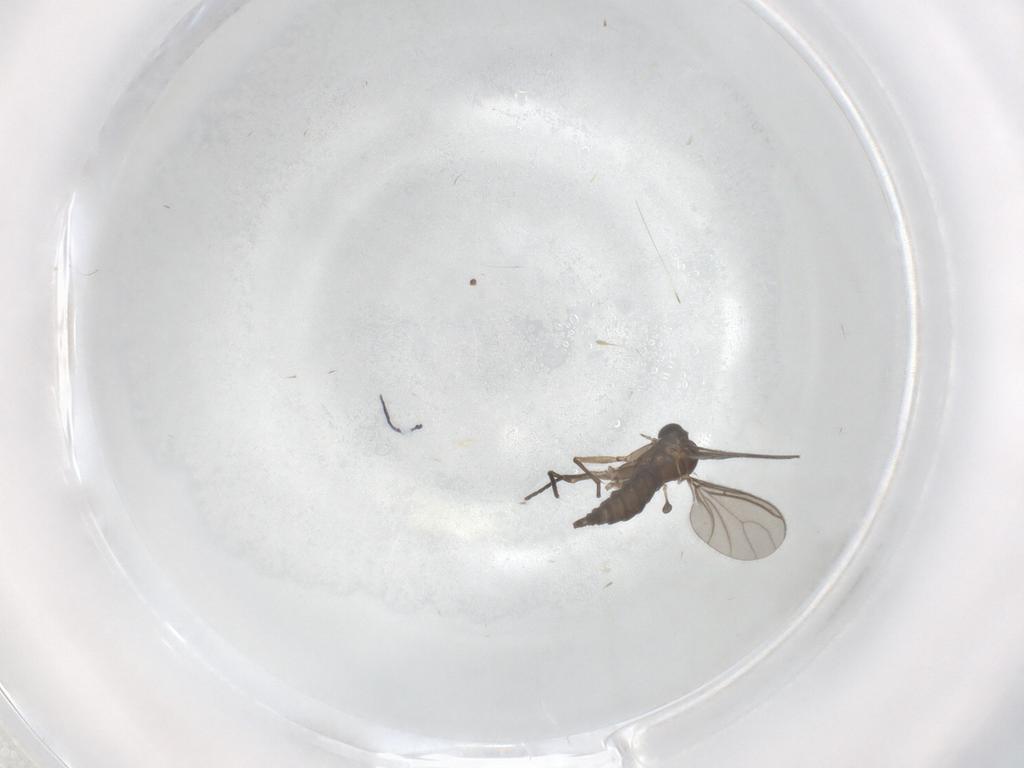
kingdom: Animalia
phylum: Arthropoda
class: Insecta
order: Diptera
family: Sciaridae
